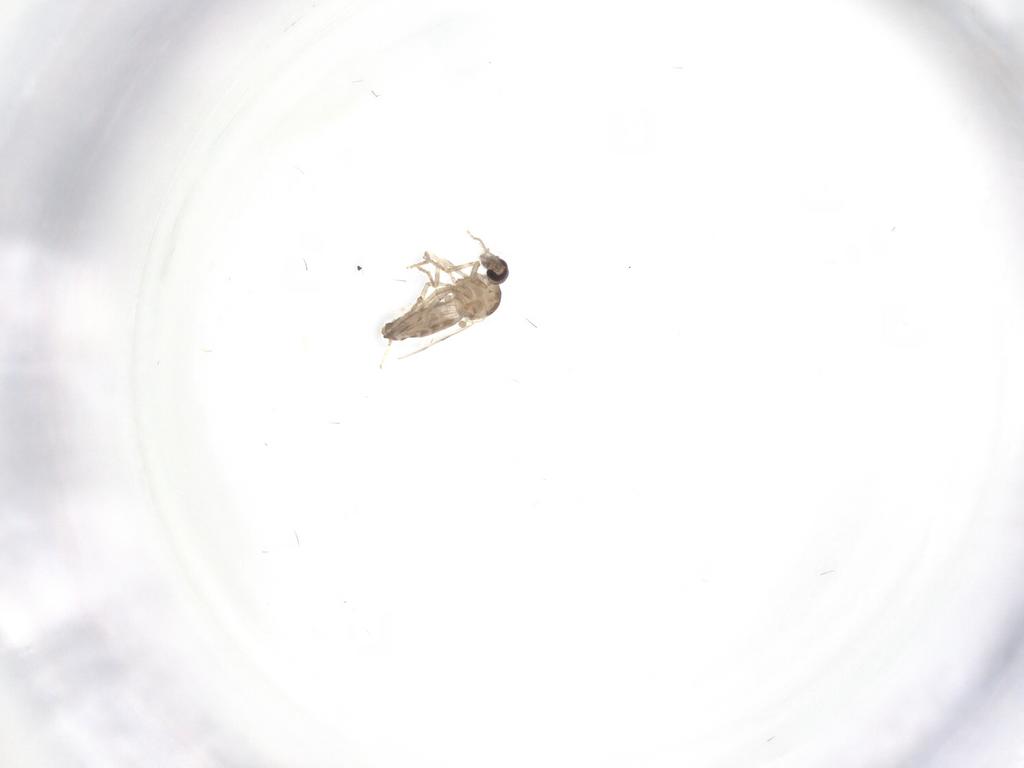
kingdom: Animalia
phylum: Arthropoda
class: Insecta
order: Diptera
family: Ceratopogonidae
